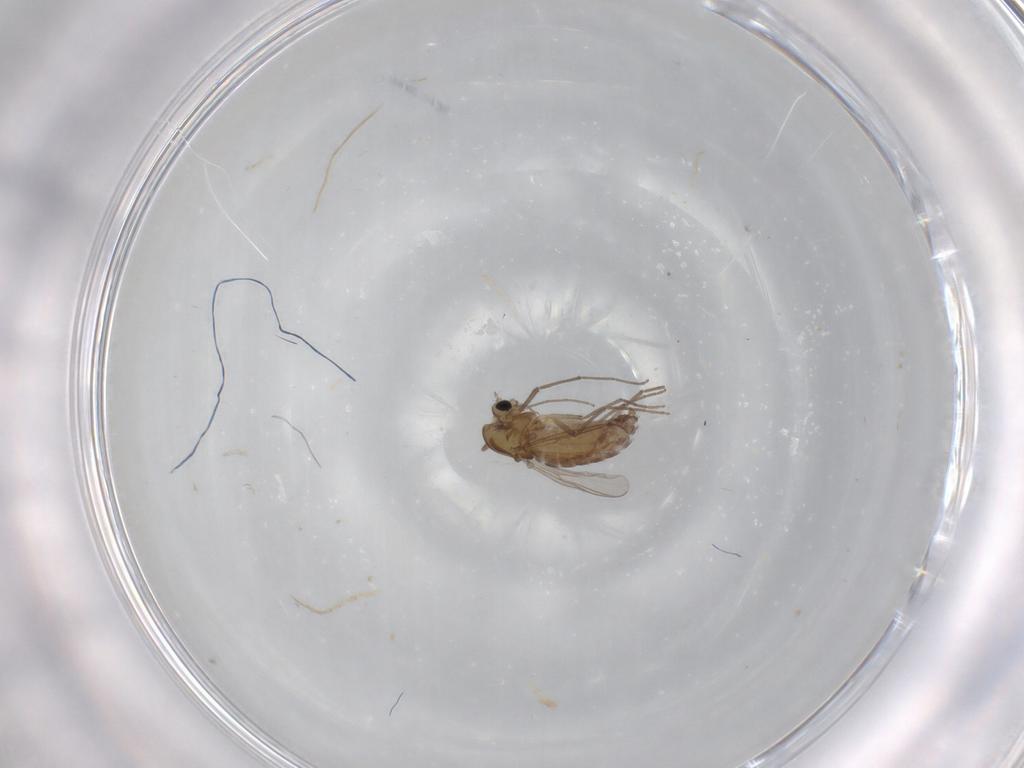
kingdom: Animalia
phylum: Arthropoda
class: Insecta
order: Diptera
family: Chironomidae
